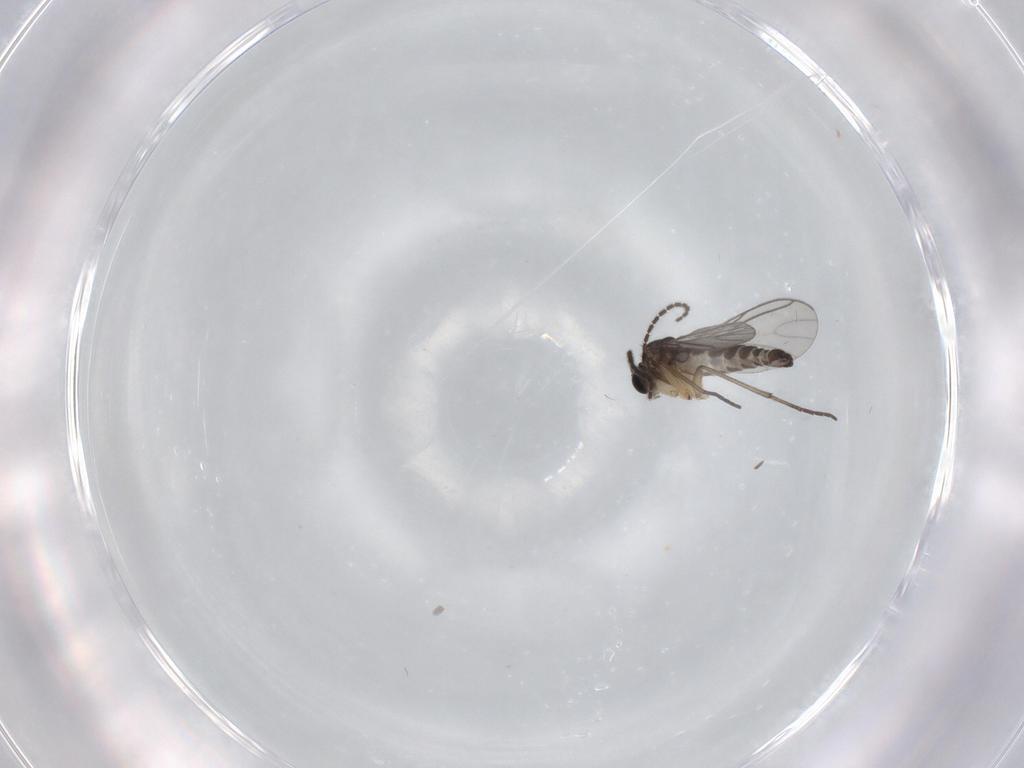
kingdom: Animalia
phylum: Arthropoda
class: Insecta
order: Diptera
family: Sciaridae
